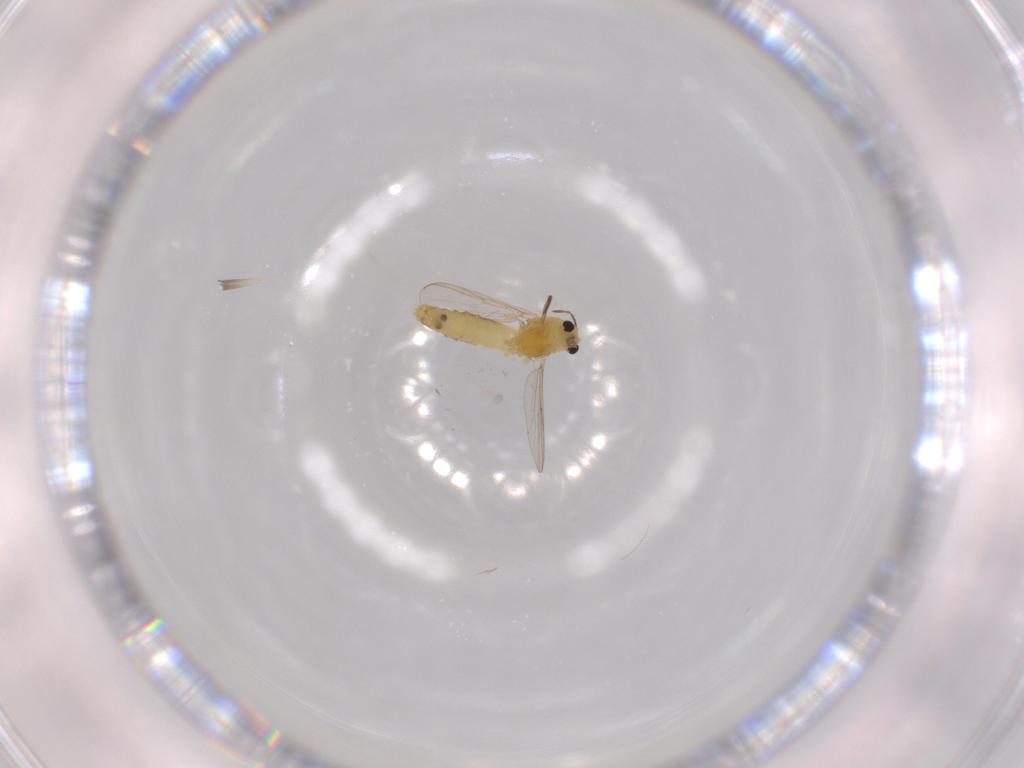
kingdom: Animalia
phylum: Arthropoda
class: Insecta
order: Diptera
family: Chironomidae
